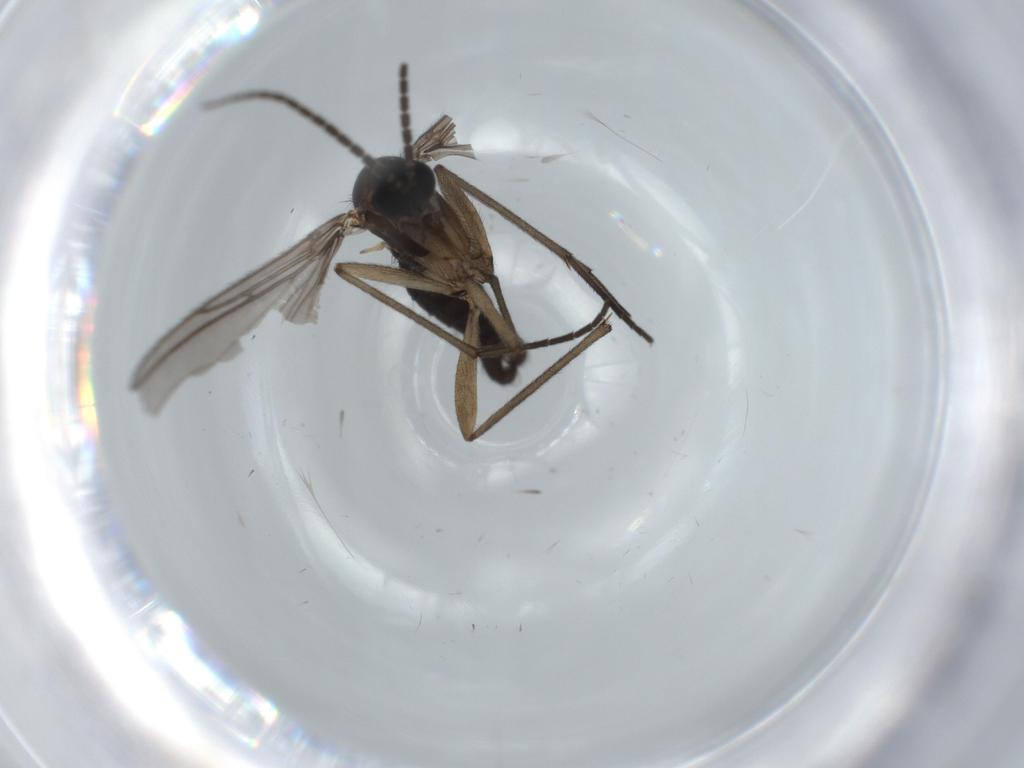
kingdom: Animalia
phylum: Arthropoda
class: Insecta
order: Diptera
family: Sciaridae
